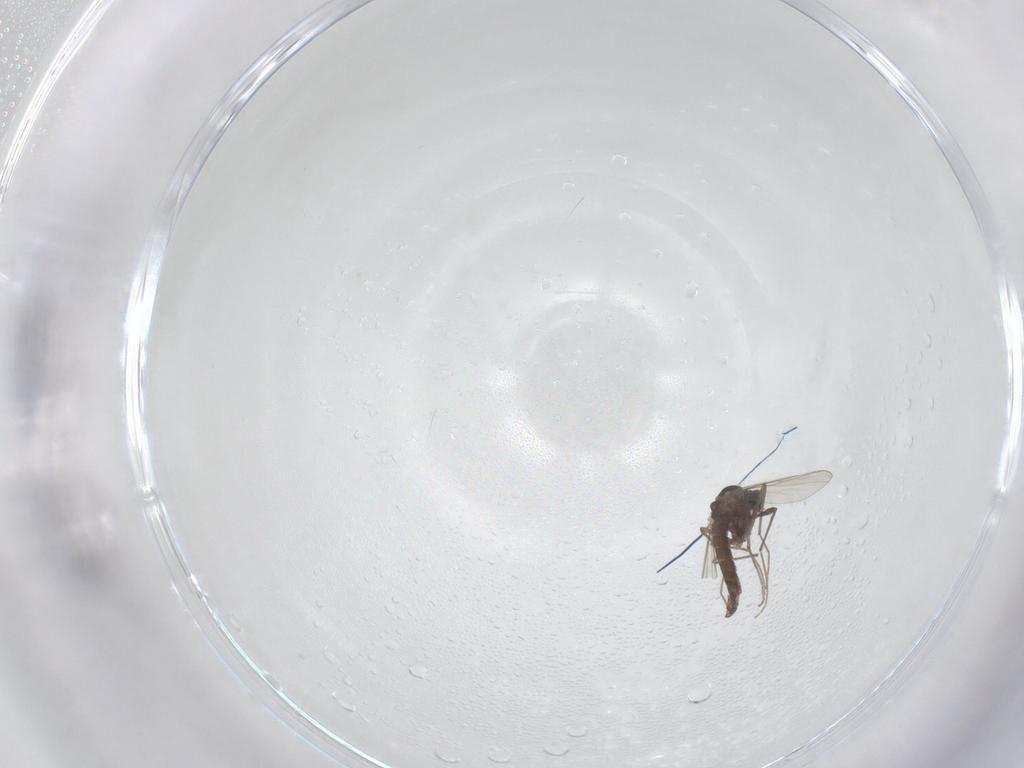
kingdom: Animalia
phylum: Arthropoda
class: Insecta
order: Diptera
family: Chironomidae
